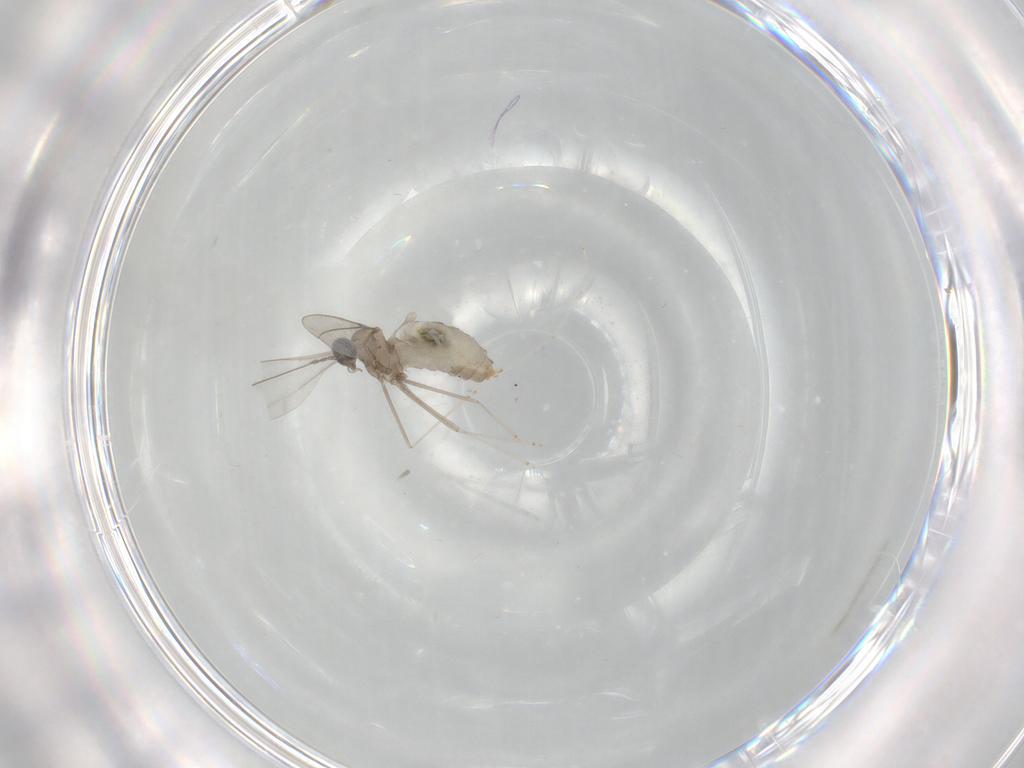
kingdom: Animalia
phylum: Arthropoda
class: Insecta
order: Diptera
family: Cecidomyiidae
